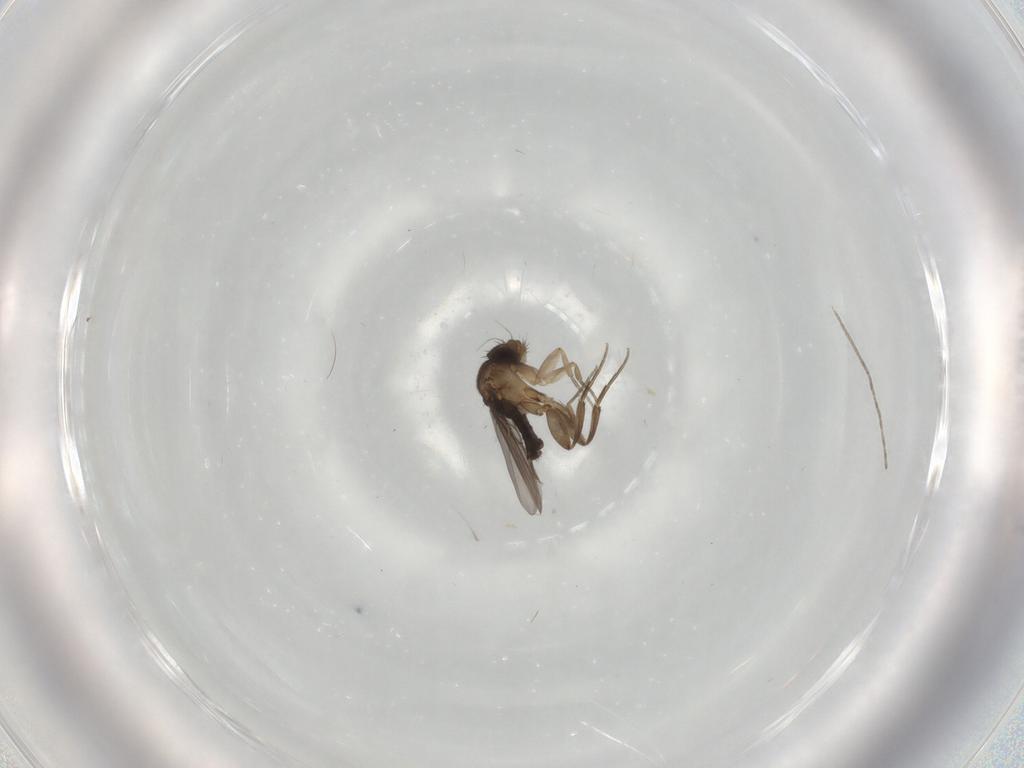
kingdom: Animalia
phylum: Arthropoda
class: Insecta
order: Diptera
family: Phoridae
